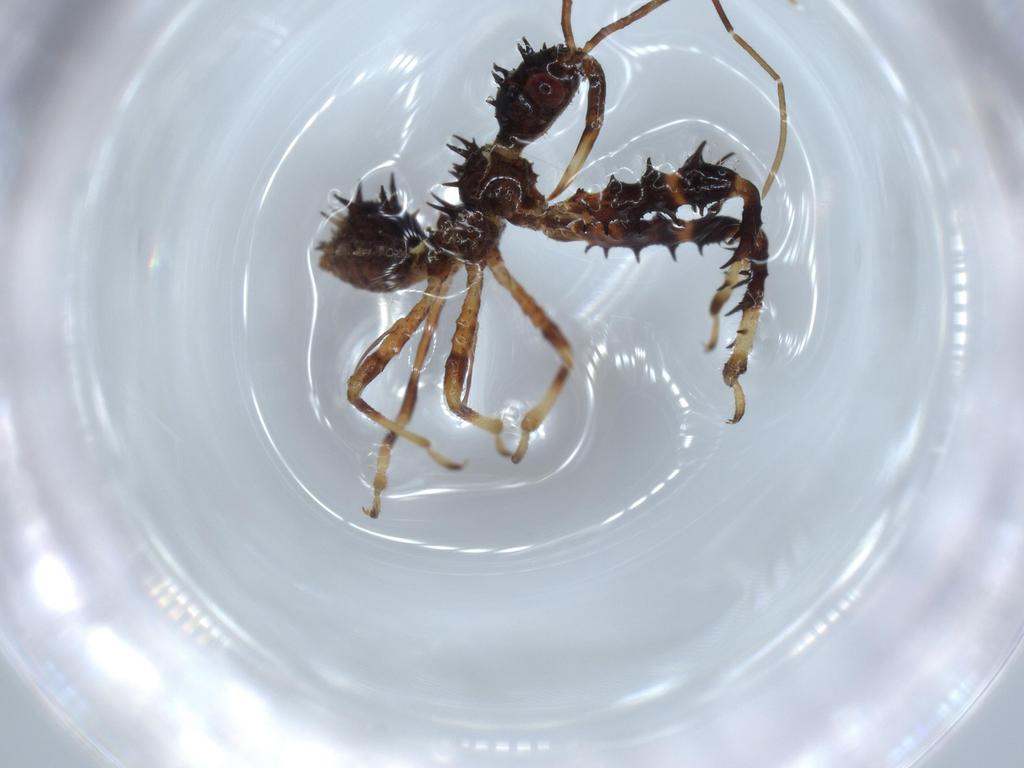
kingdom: Animalia
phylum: Arthropoda
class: Insecta
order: Hemiptera
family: Reduviidae
